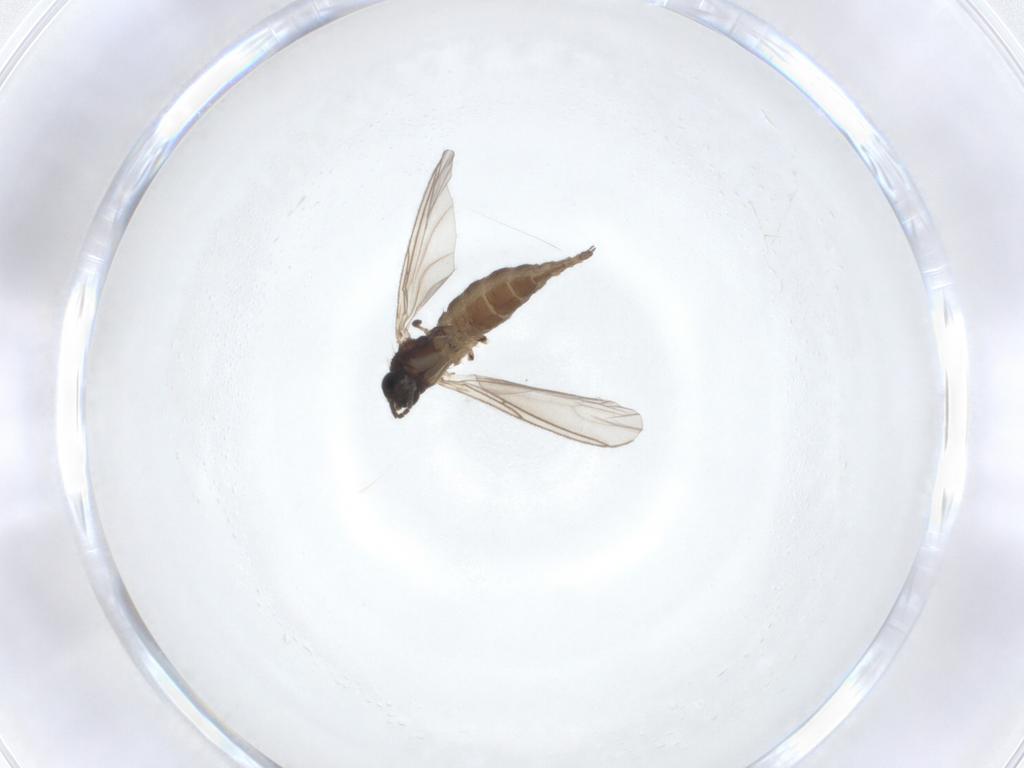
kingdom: Animalia
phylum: Arthropoda
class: Insecta
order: Diptera
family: Sciaridae
